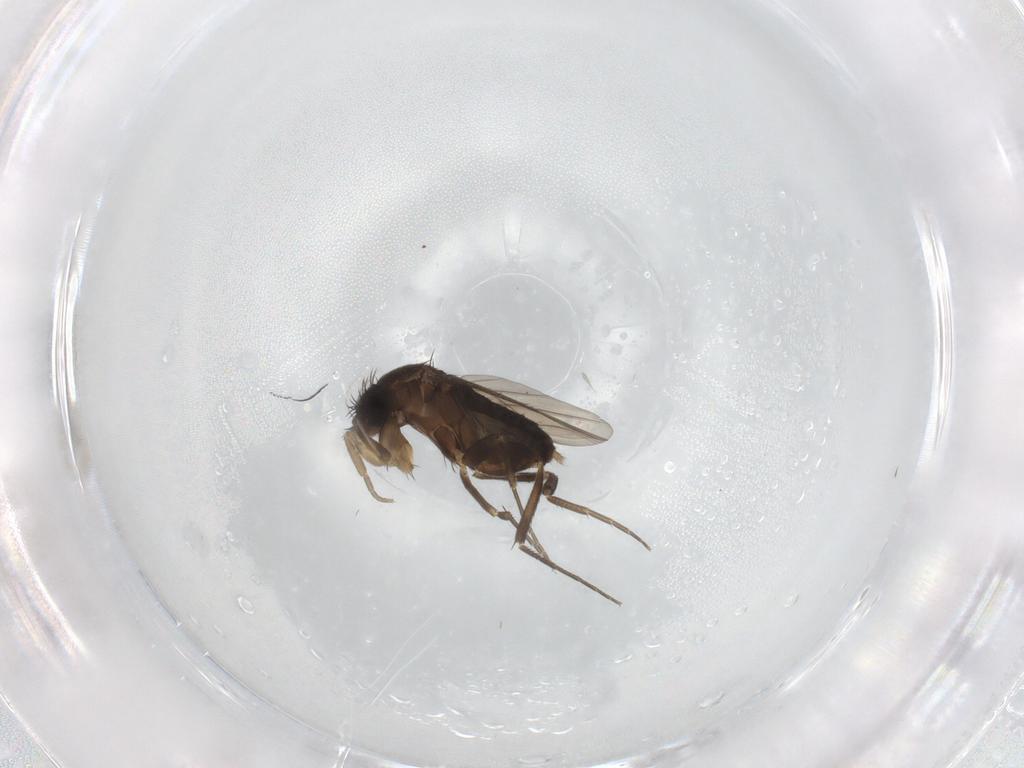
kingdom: Animalia
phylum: Arthropoda
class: Insecta
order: Diptera
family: Phoridae
